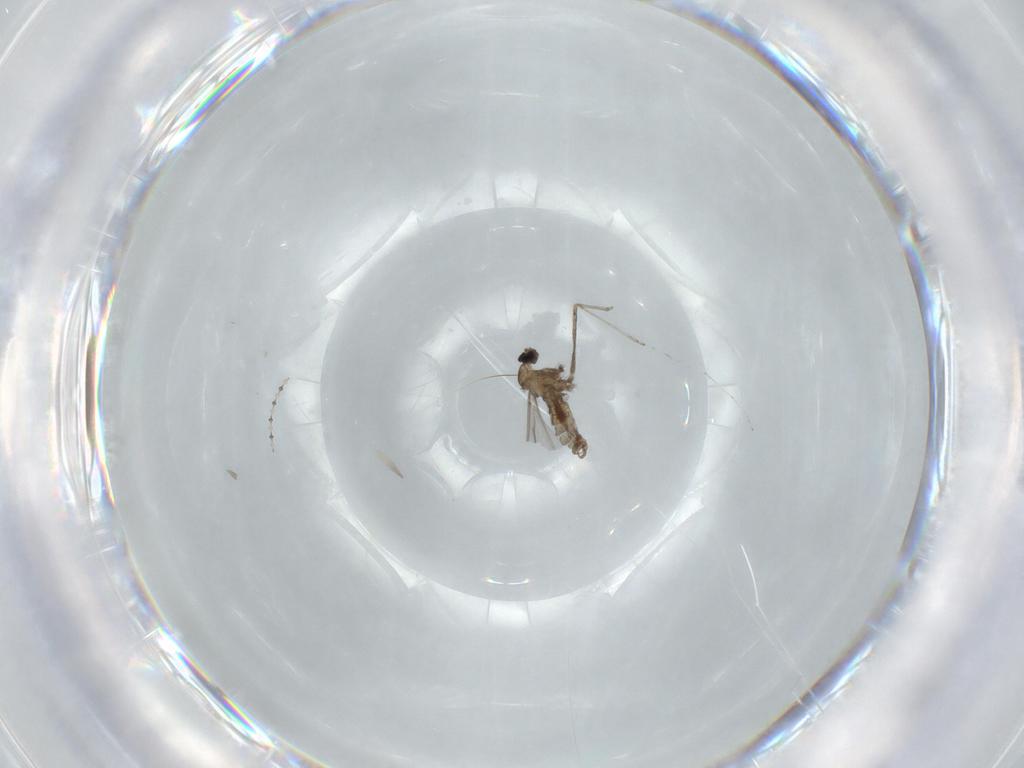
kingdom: Animalia
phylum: Arthropoda
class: Insecta
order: Diptera
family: Cecidomyiidae
